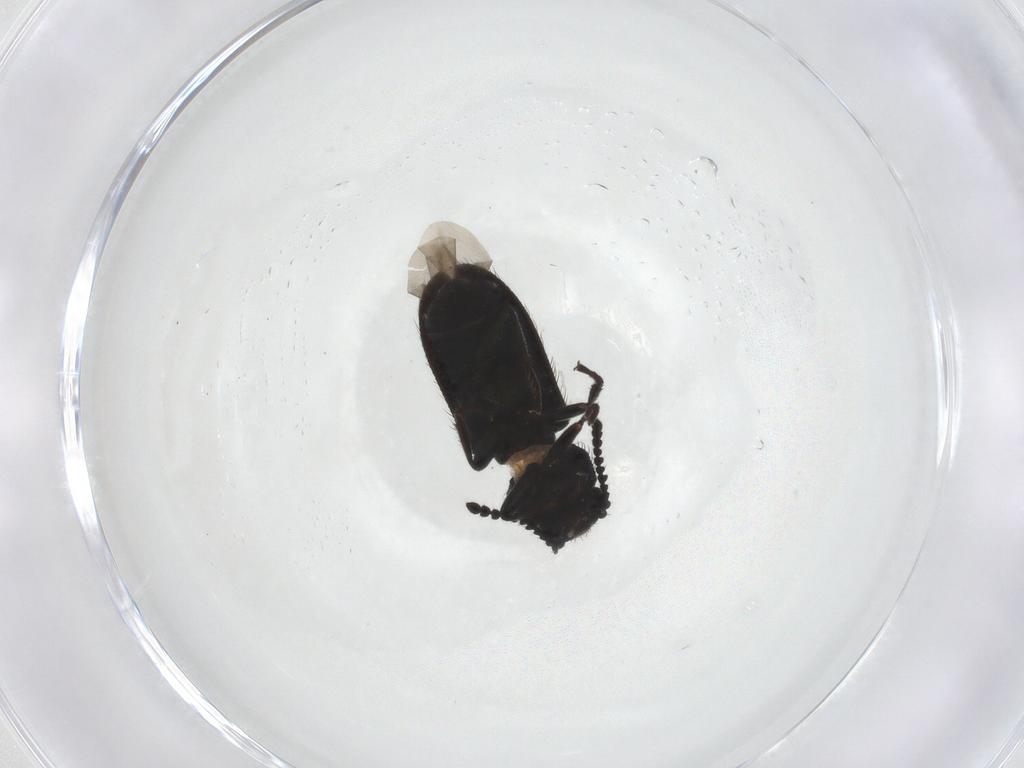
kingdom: Animalia
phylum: Arthropoda
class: Insecta
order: Coleoptera
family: Melyridae
